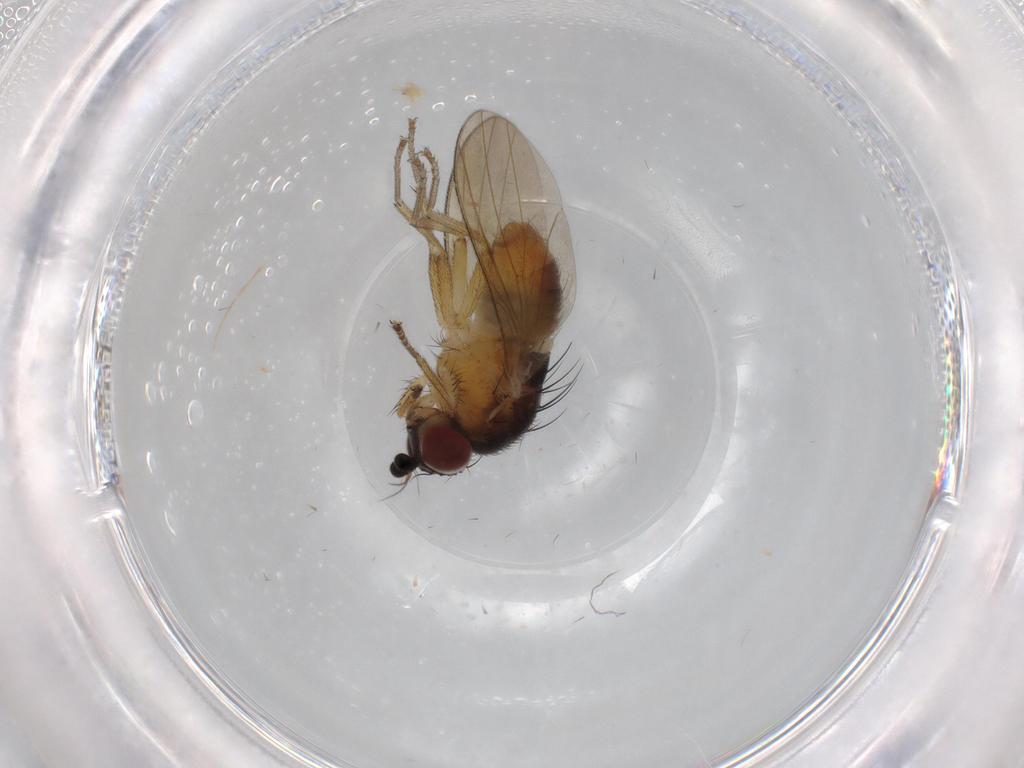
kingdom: Animalia
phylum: Arthropoda
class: Insecta
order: Diptera
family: Lauxaniidae
